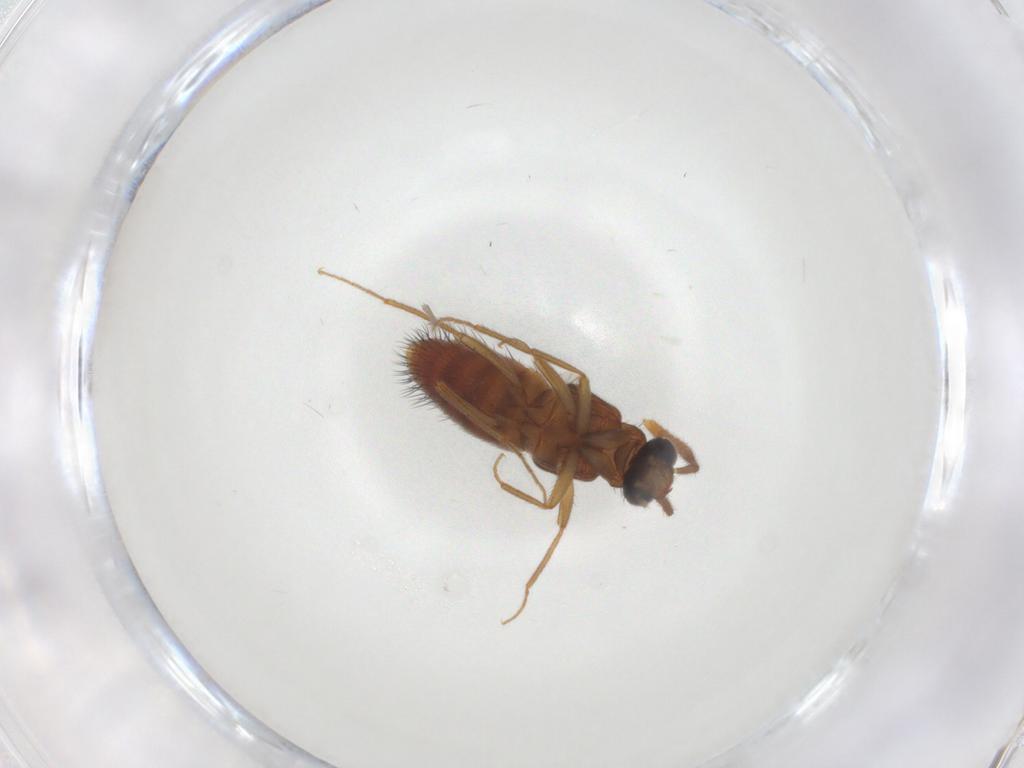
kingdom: Animalia
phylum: Arthropoda
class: Insecta
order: Coleoptera
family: Staphylinidae
